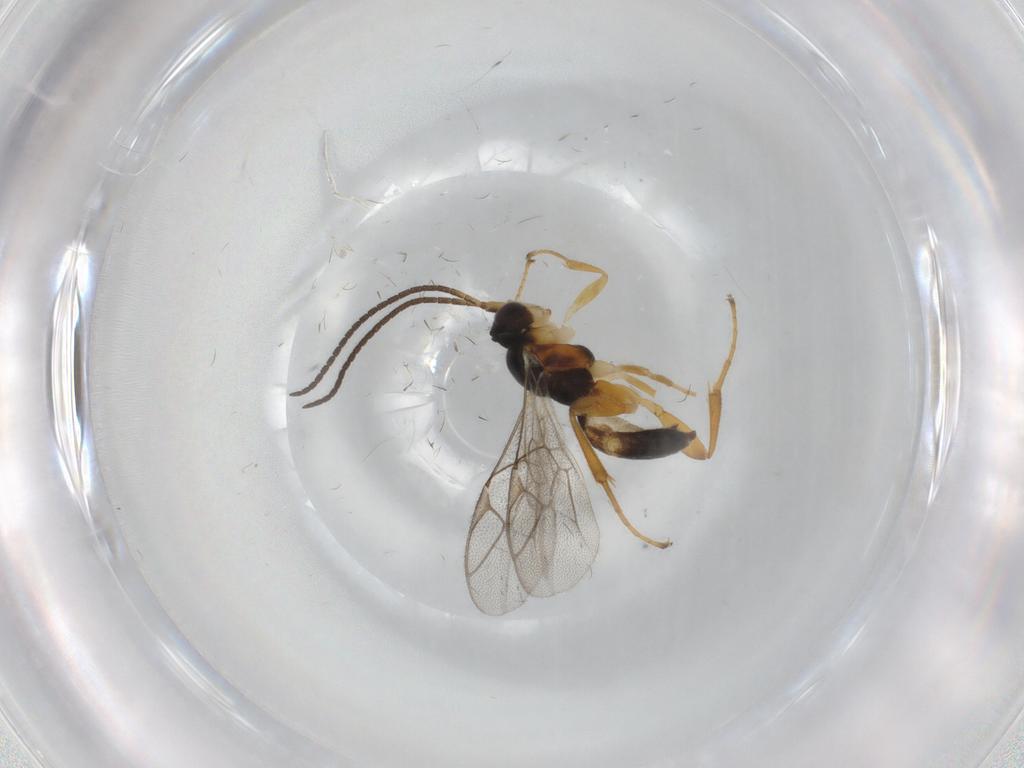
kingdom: Animalia
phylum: Arthropoda
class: Insecta
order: Hymenoptera
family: Ichneumonidae
